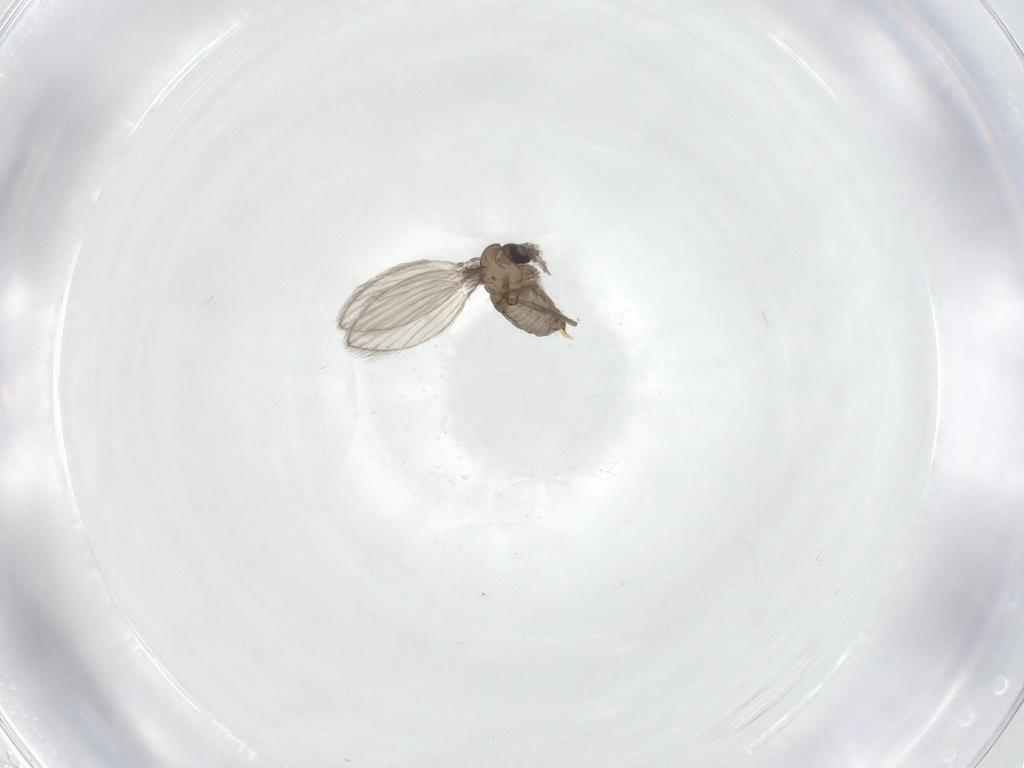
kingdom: Animalia
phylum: Arthropoda
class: Insecta
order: Diptera
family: Psychodidae
